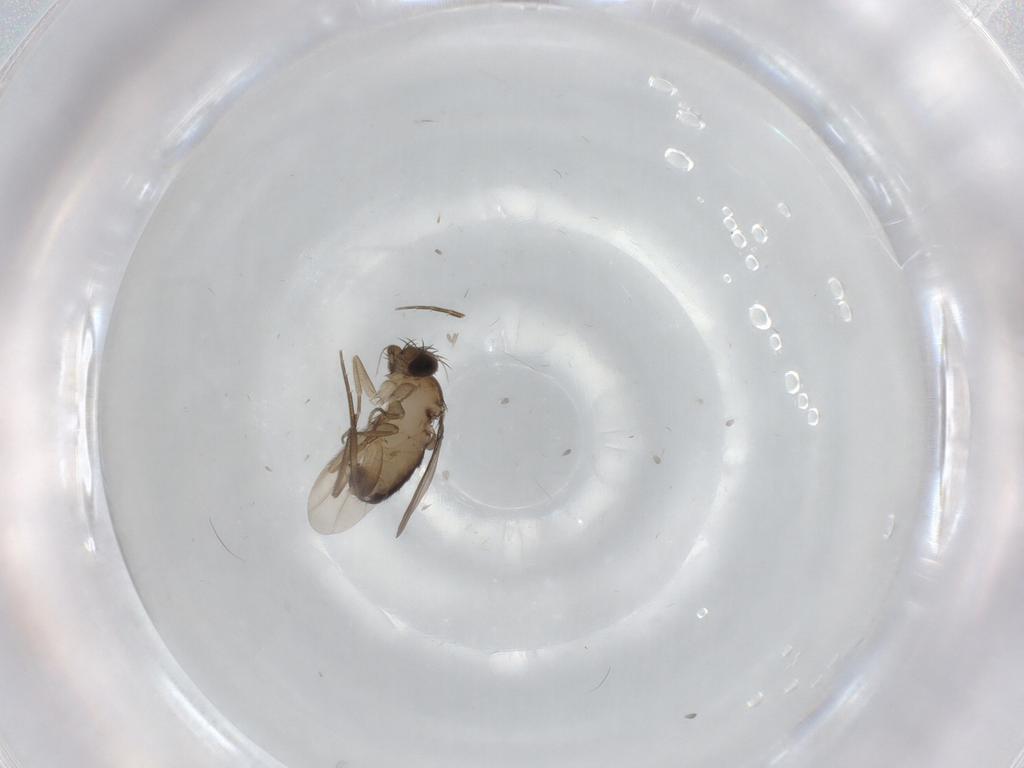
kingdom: Animalia
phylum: Arthropoda
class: Insecta
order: Diptera
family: Phoridae
